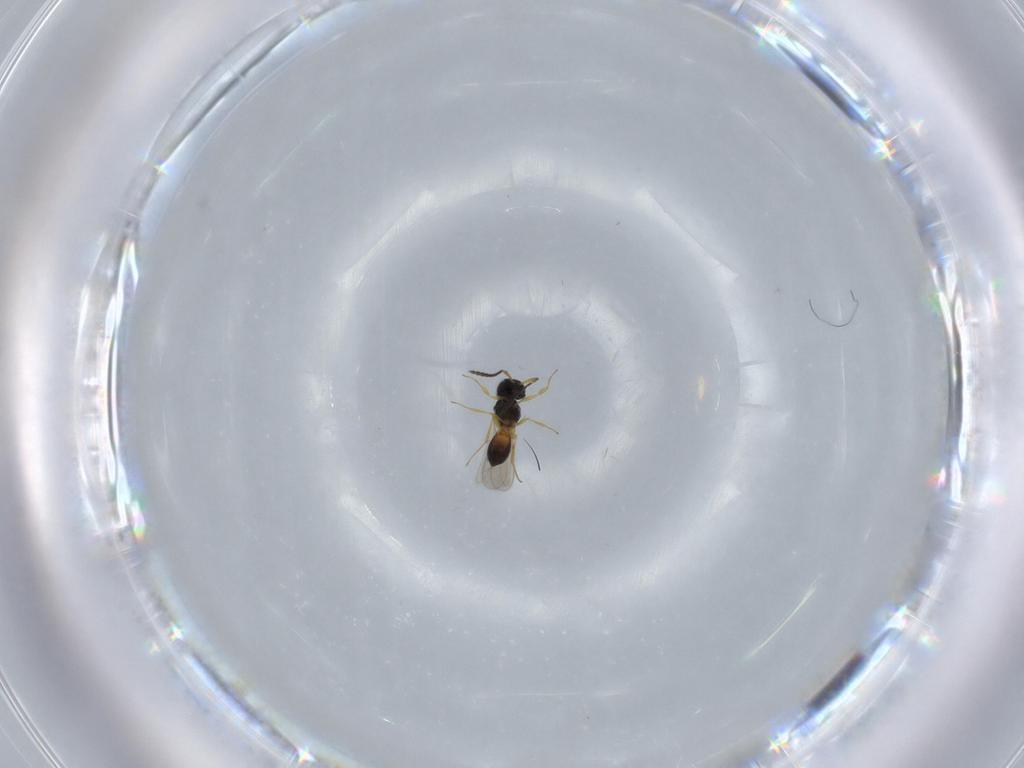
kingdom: Animalia
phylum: Arthropoda
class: Insecta
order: Hymenoptera
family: Scelionidae
